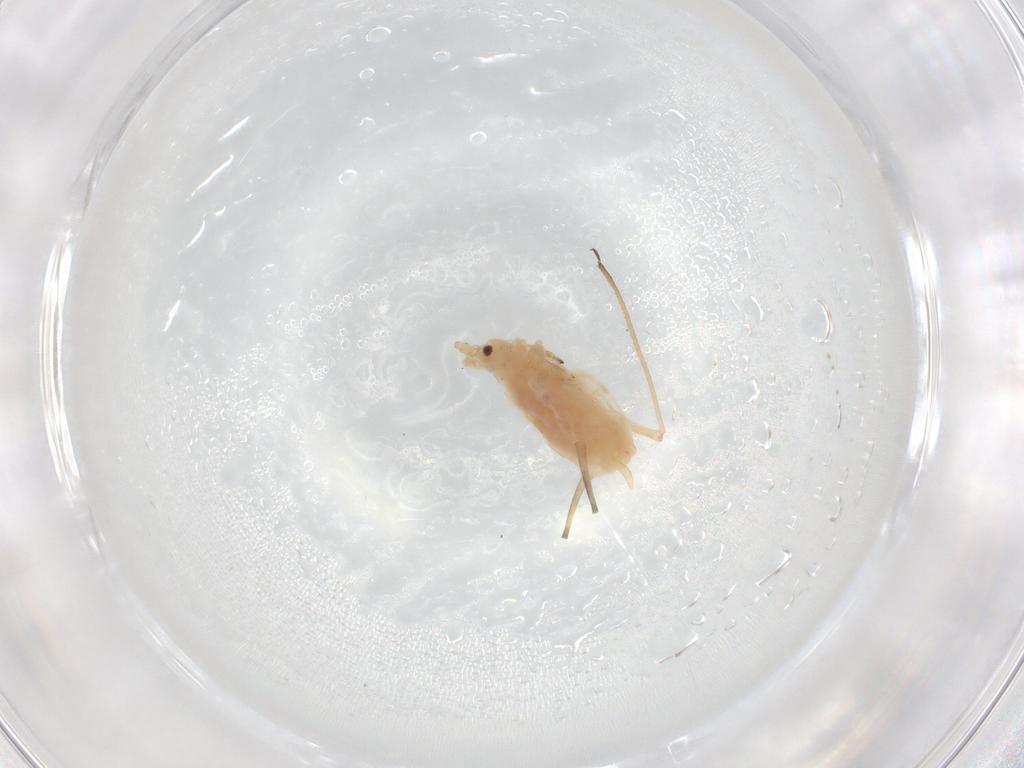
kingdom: Animalia
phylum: Arthropoda
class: Insecta
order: Hemiptera
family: Aphididae
